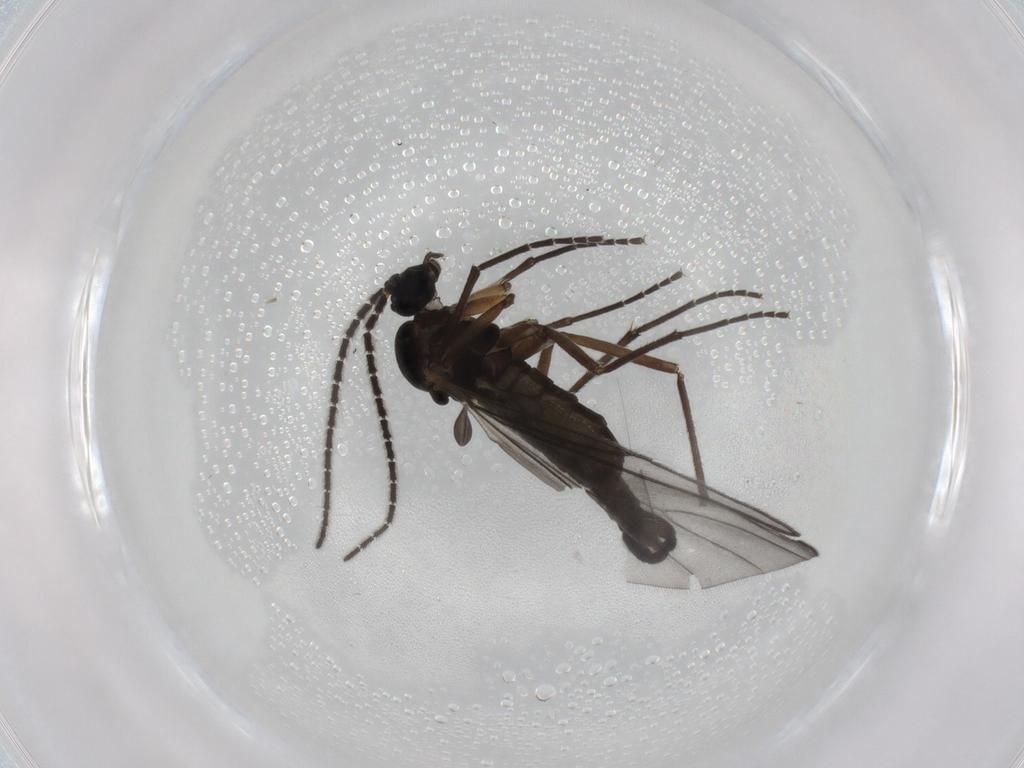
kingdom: Animalia
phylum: Arthropoda
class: Insecta
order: Diptera
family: Sciaridae
